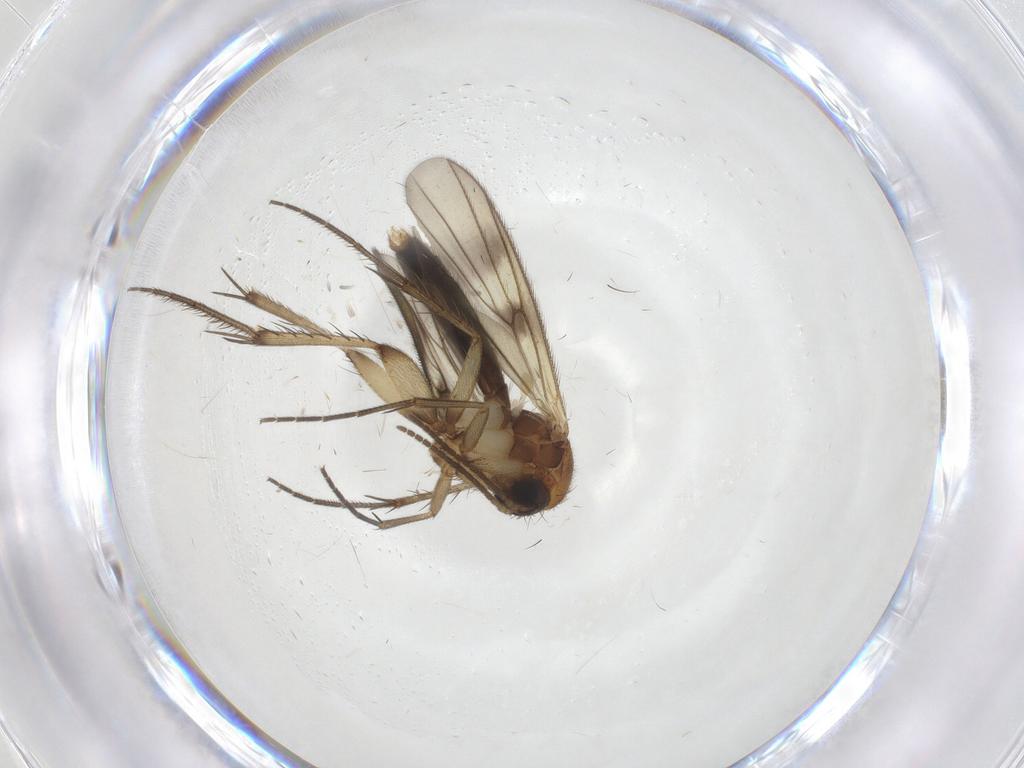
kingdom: Animalia
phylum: Arthropoda
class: Insecta
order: Diptera
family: Mycetophilidae
